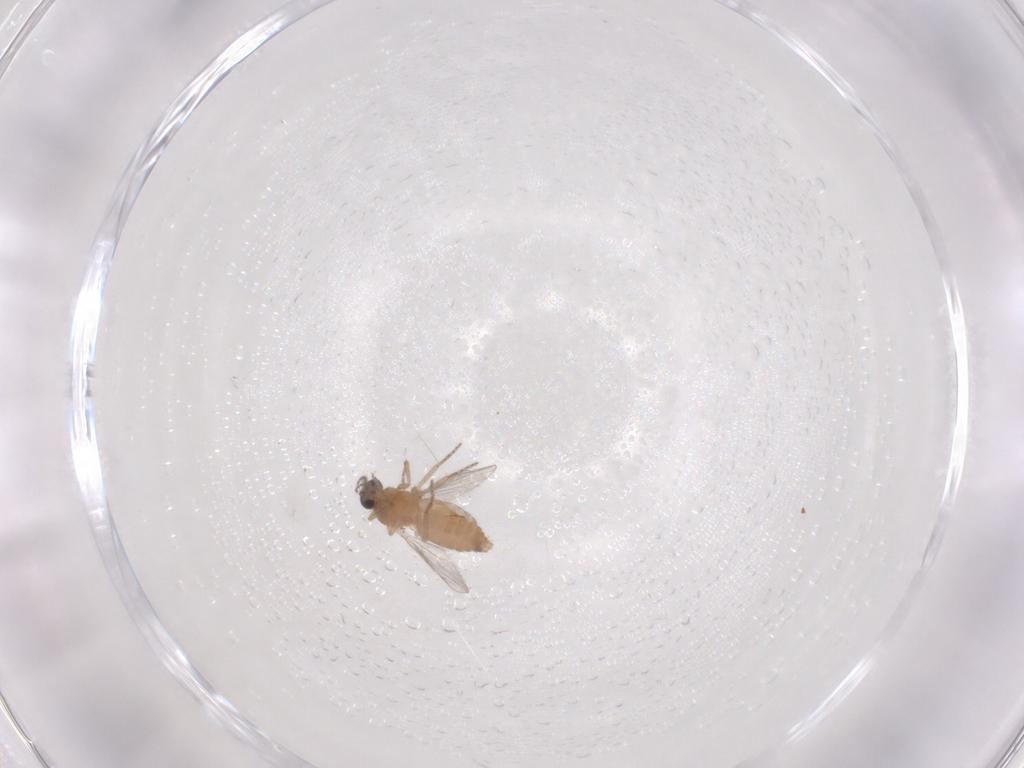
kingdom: Animalia
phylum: Arthropoda
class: Insecta
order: Diptera
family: Ceratopogonidae
